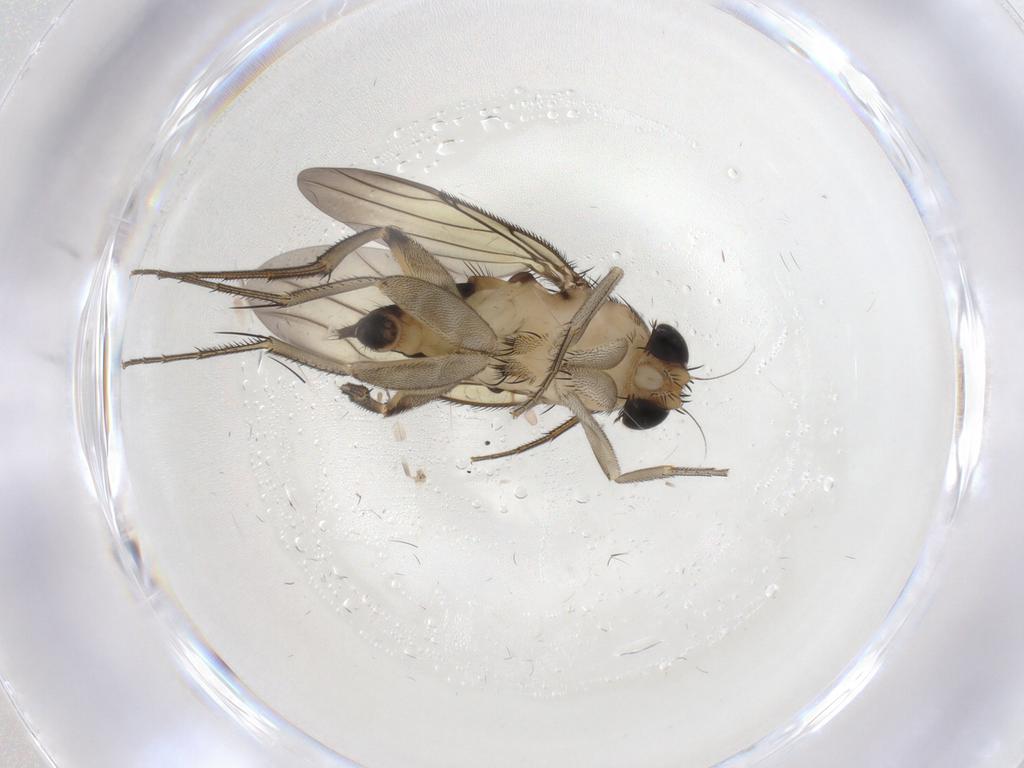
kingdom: Animalia
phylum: Arthropoda
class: Insecta
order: Diptera
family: Phoridae
